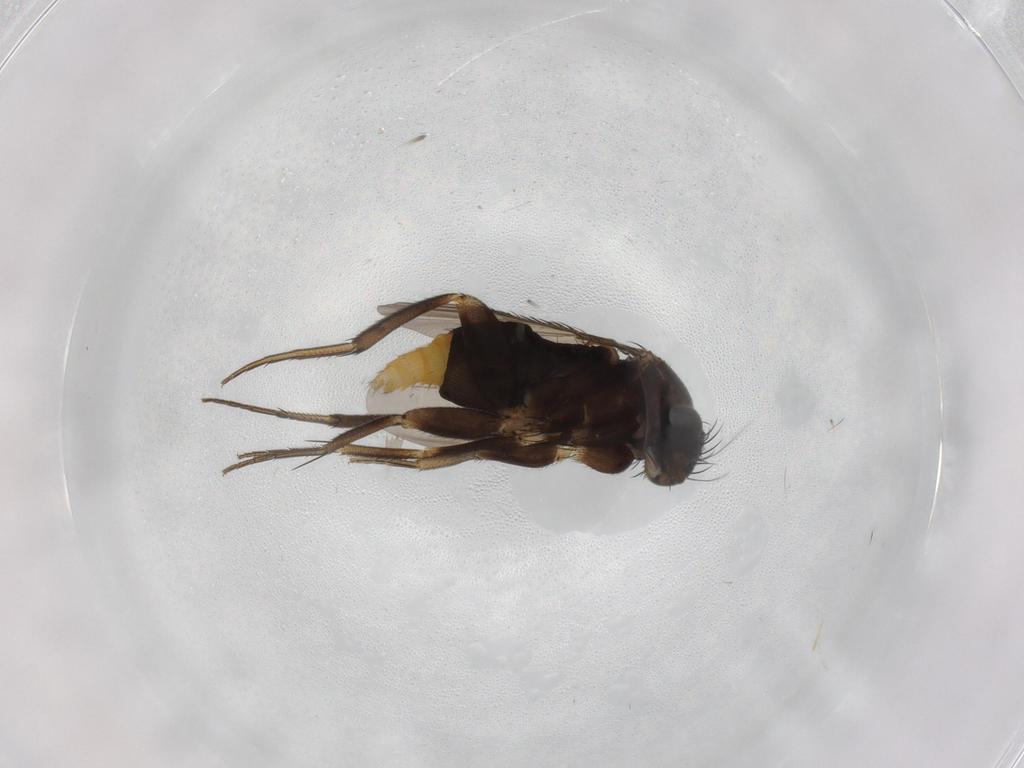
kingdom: Animalia
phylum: Arthropoda
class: Insecta
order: Diptera
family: Phoridae
